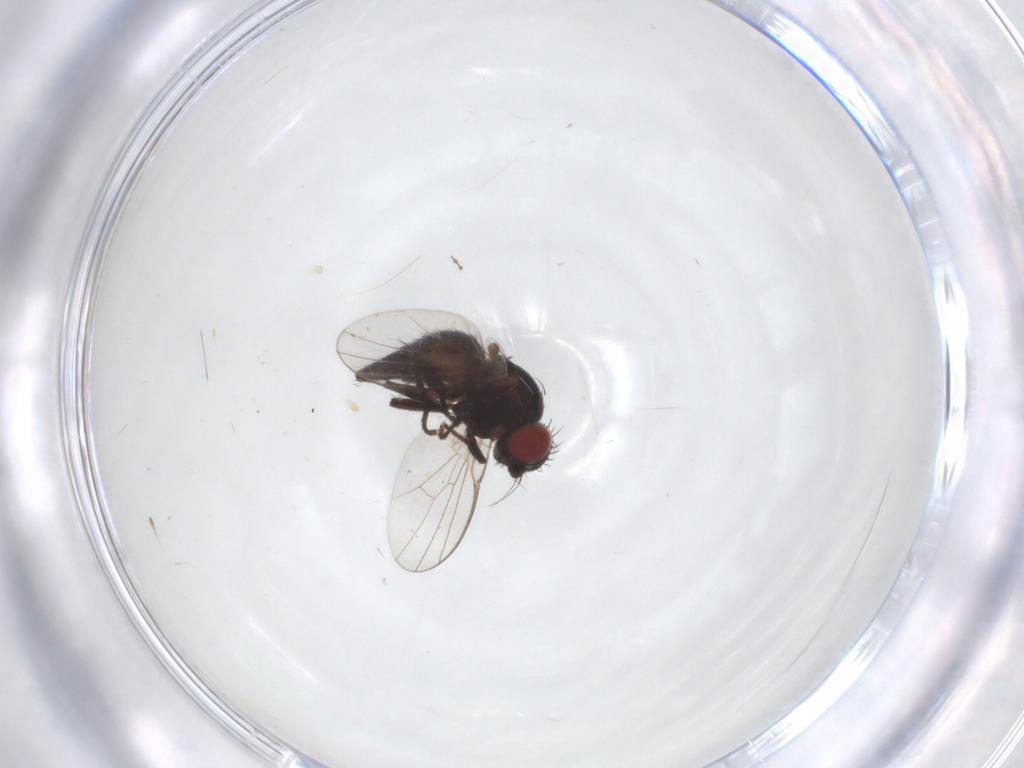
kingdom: Animalia
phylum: Arthropoda
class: Insecta
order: Diptera
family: Agromyzidae
